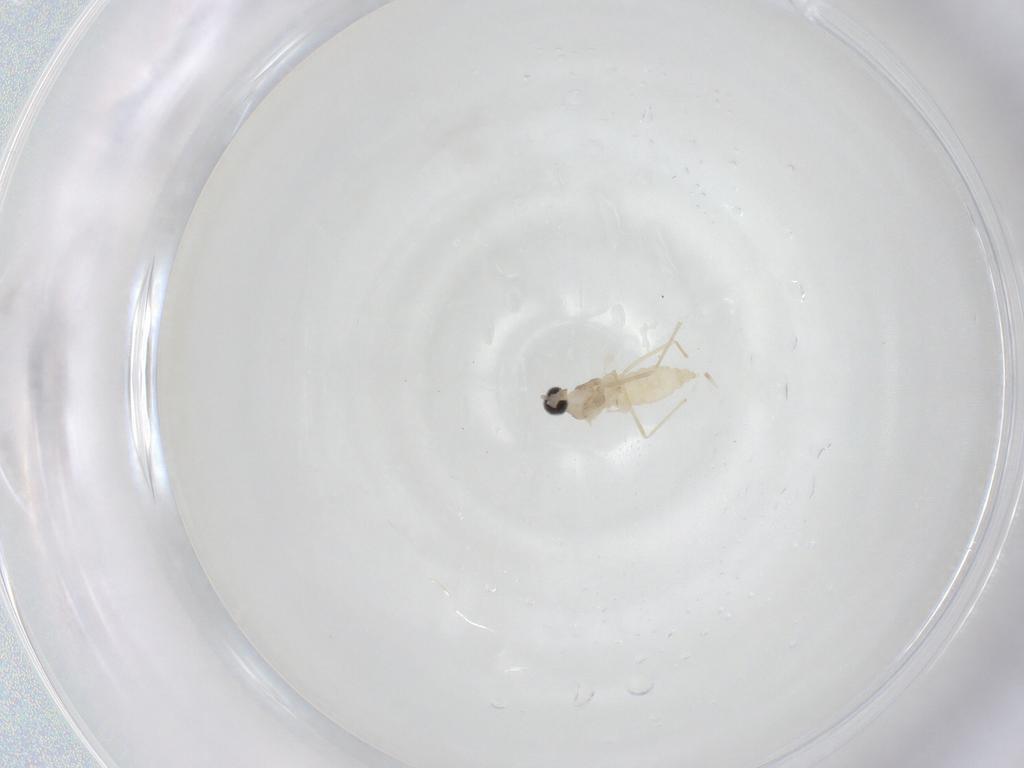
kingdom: Animalia
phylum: Arthropoda
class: Insecta
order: Diptera
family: Cecidomyiidae
